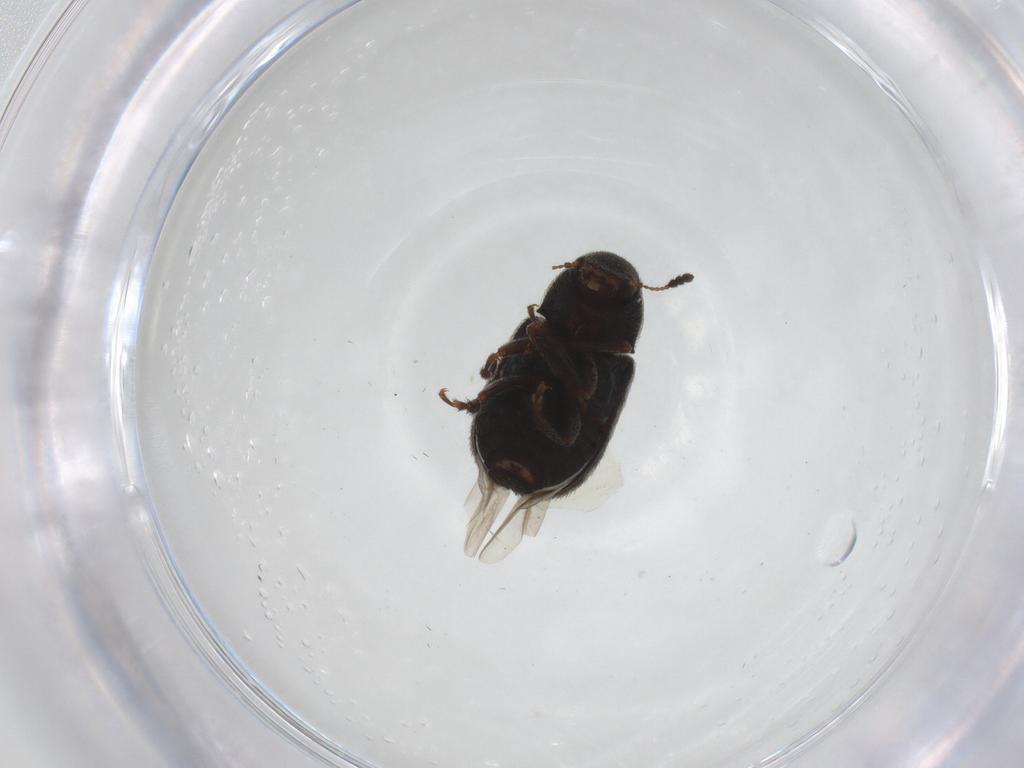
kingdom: Animalia
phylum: Arthropoda
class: Insecta
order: Coleoptera
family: Anthribidae
